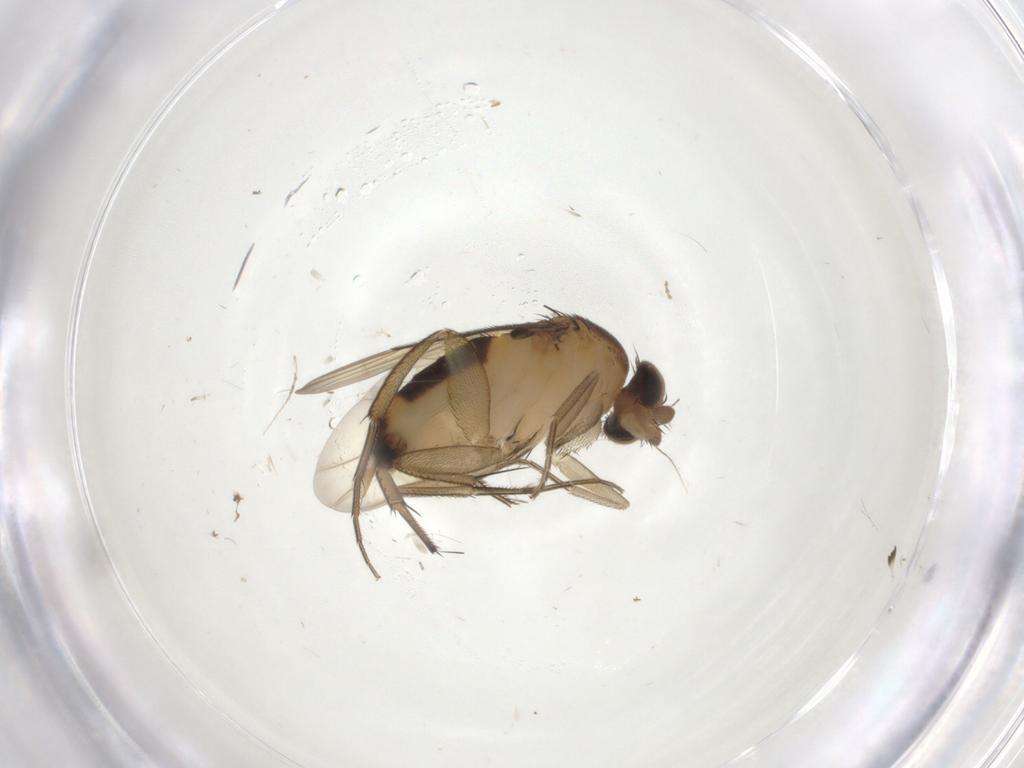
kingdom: Animalia
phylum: Arthropoda
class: Insecta
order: Diptera
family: Chironomidae
